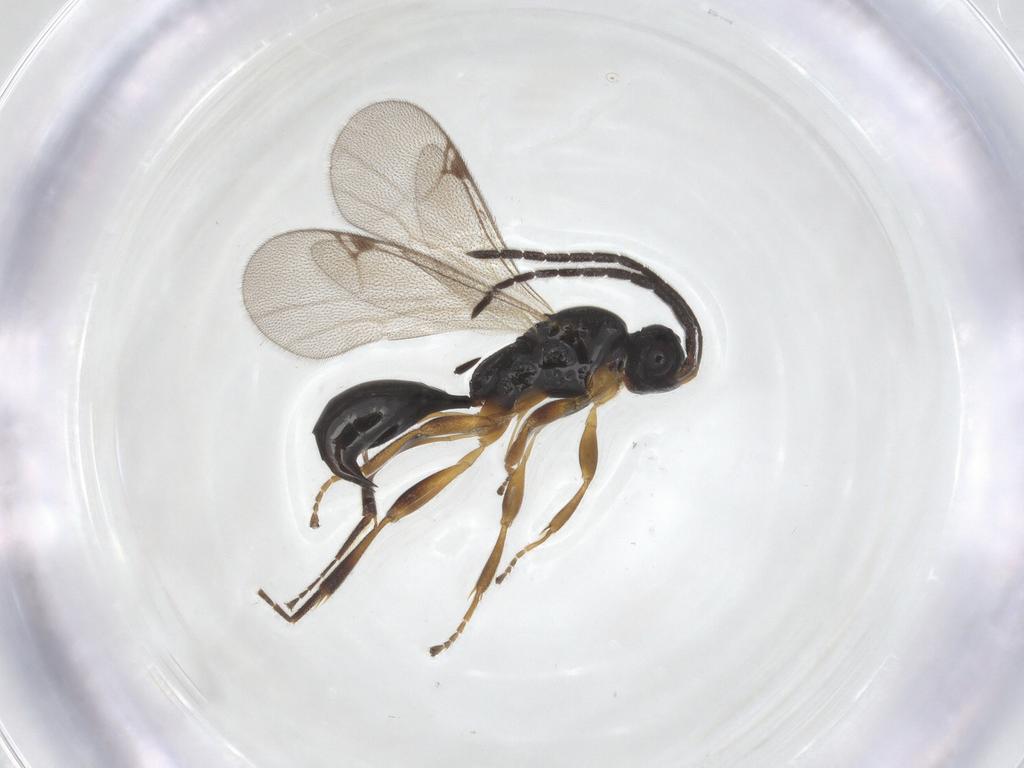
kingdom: Animalia
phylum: Arthropoda
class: Insecta
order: Hymenoptera
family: Proctotrupidae
